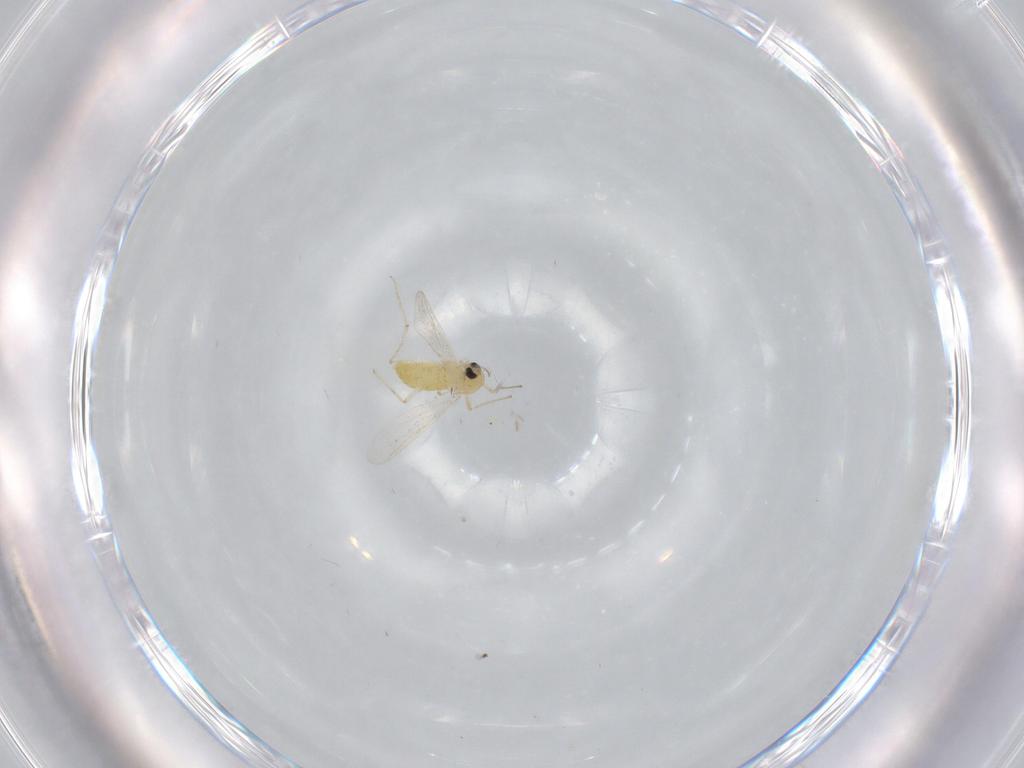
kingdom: Animalia
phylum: Arthropoda
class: Insecta
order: Diptera
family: Chironomidae
